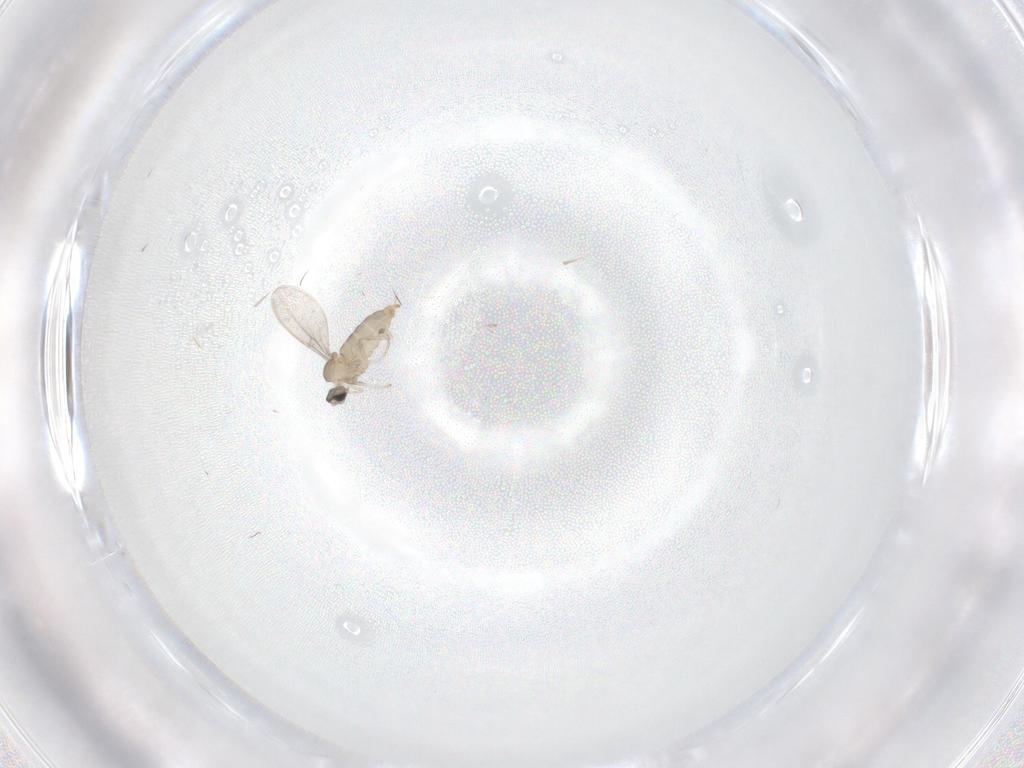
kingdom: Animalia
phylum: Arthropoda
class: Insecta
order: Diptera
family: Cecidomyiidae
